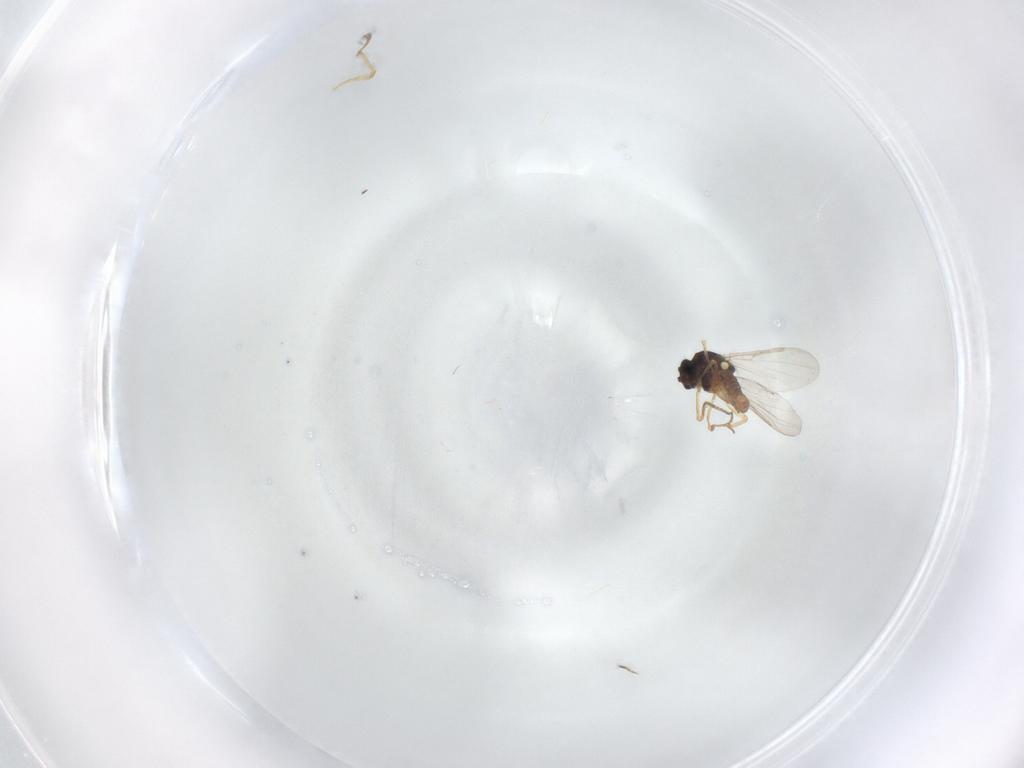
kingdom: Animalia
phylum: Arthropoda
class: Insecta
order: Diptera
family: Ceratopogonidae
